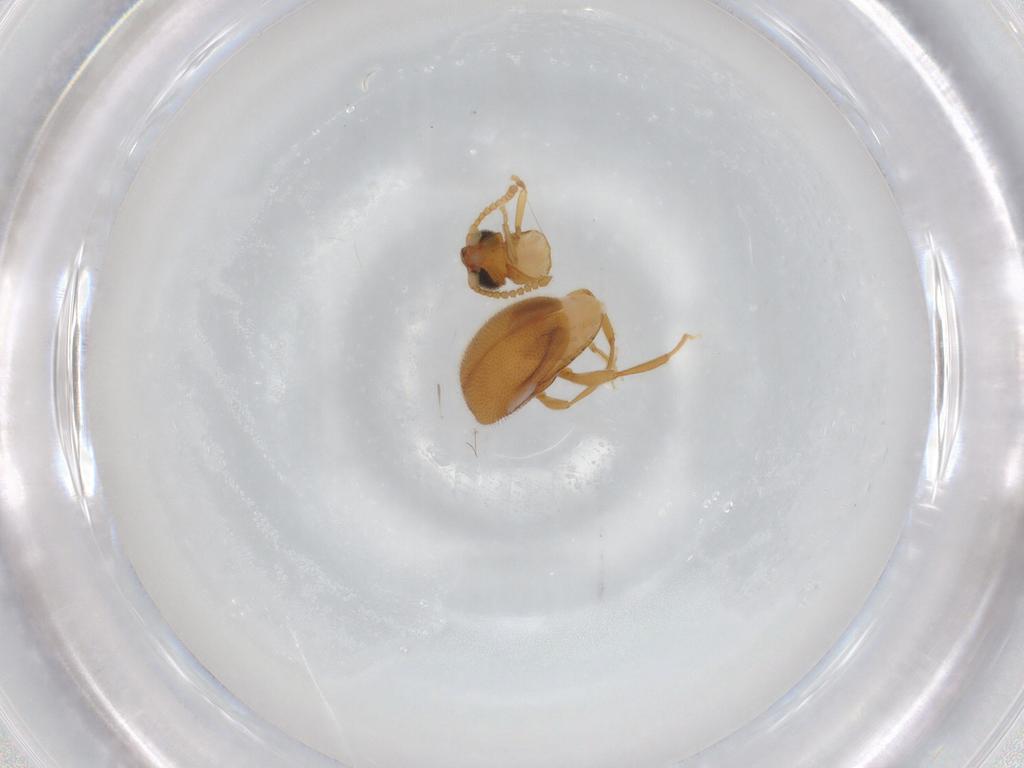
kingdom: Animalia
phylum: Arthropoda
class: Insecta
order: Coleoptera
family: Aderidae
